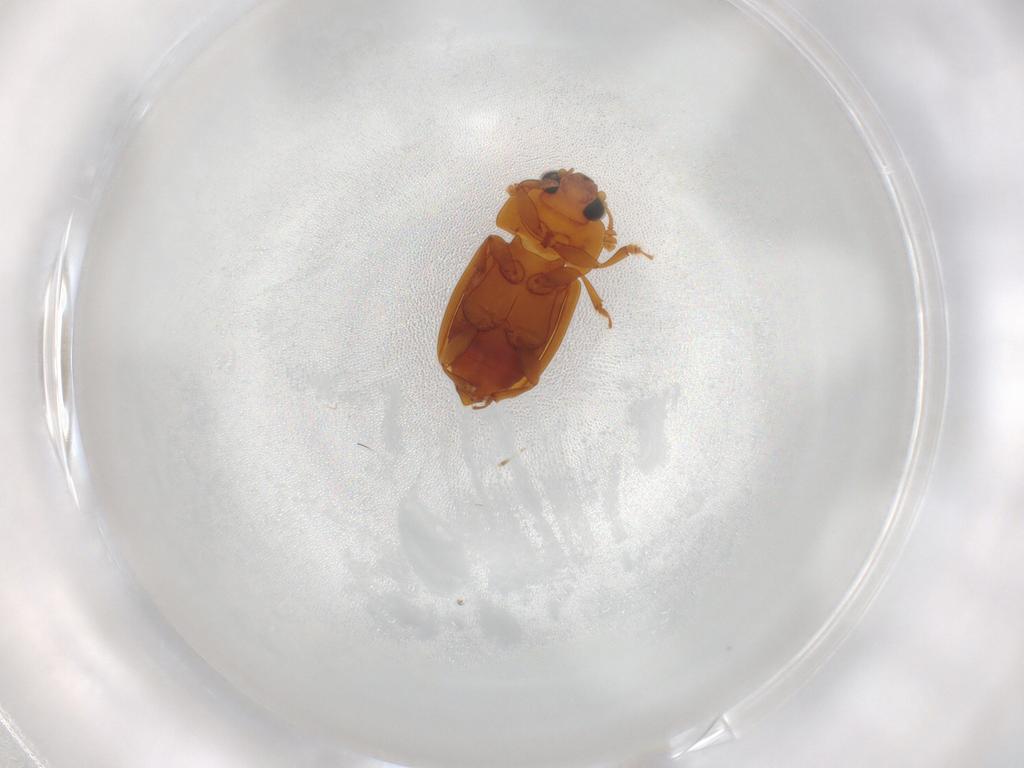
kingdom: Animalia
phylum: Arthropoda
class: Insecta
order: Coleoptera
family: Nitidulidae
